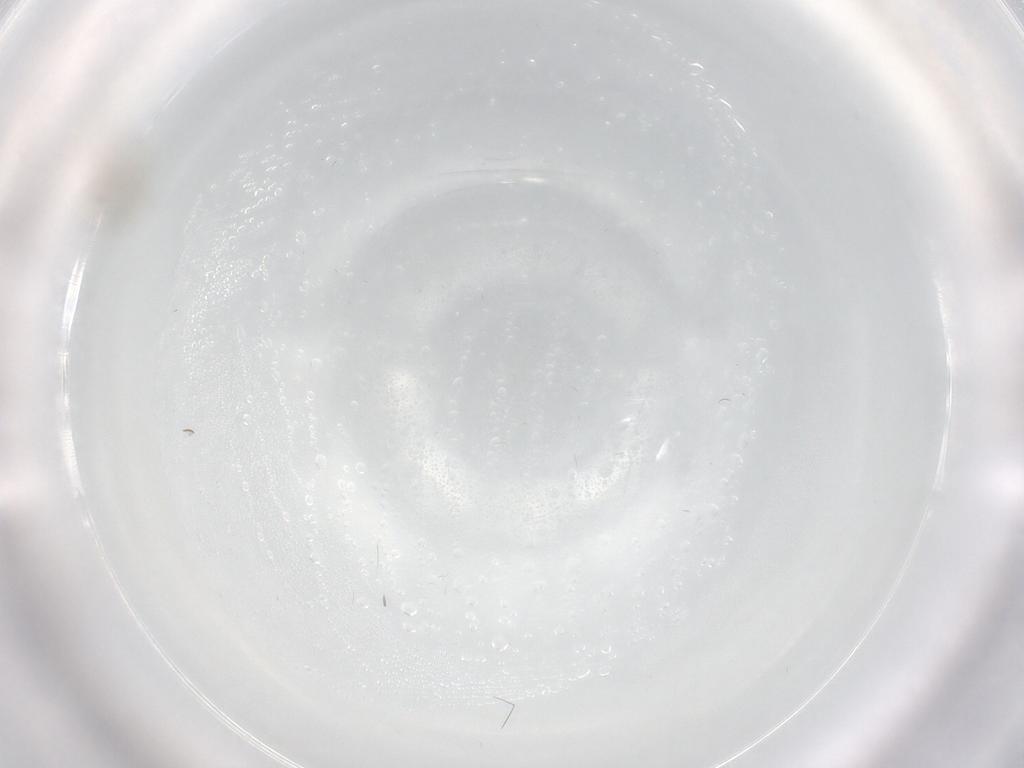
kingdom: Animalia
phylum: Arthropoda
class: Insecta
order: Diptera
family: Chironomidae
